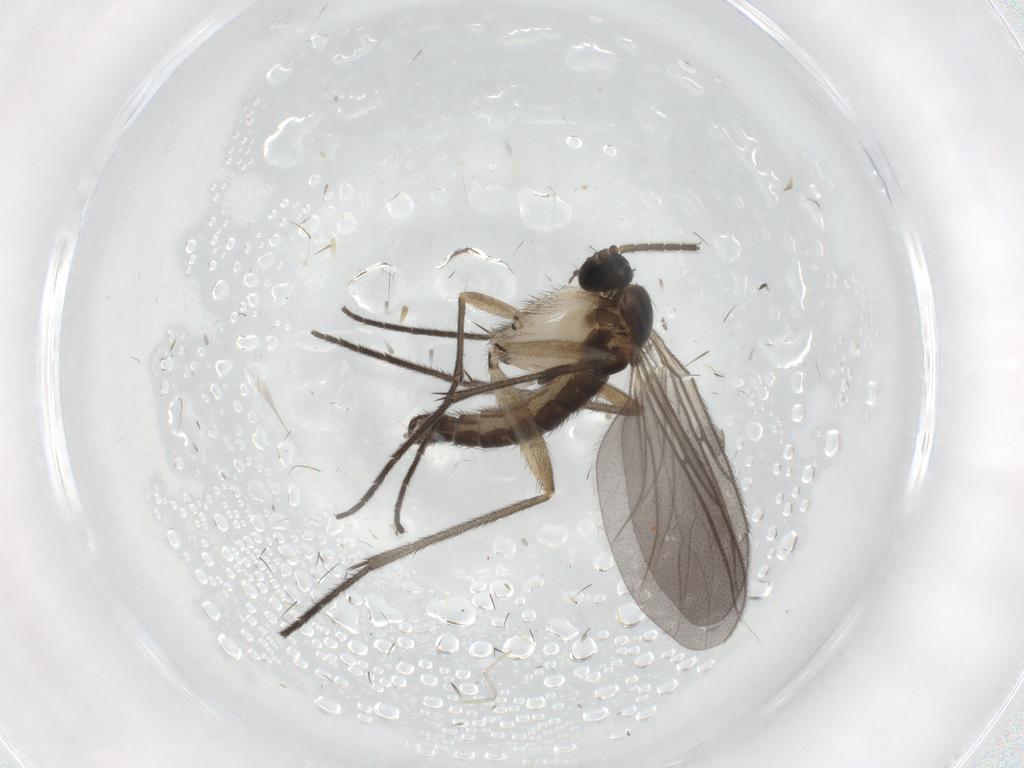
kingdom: Animalia
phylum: Arthropoda
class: Insecta
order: Diptera
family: Sciaridae
